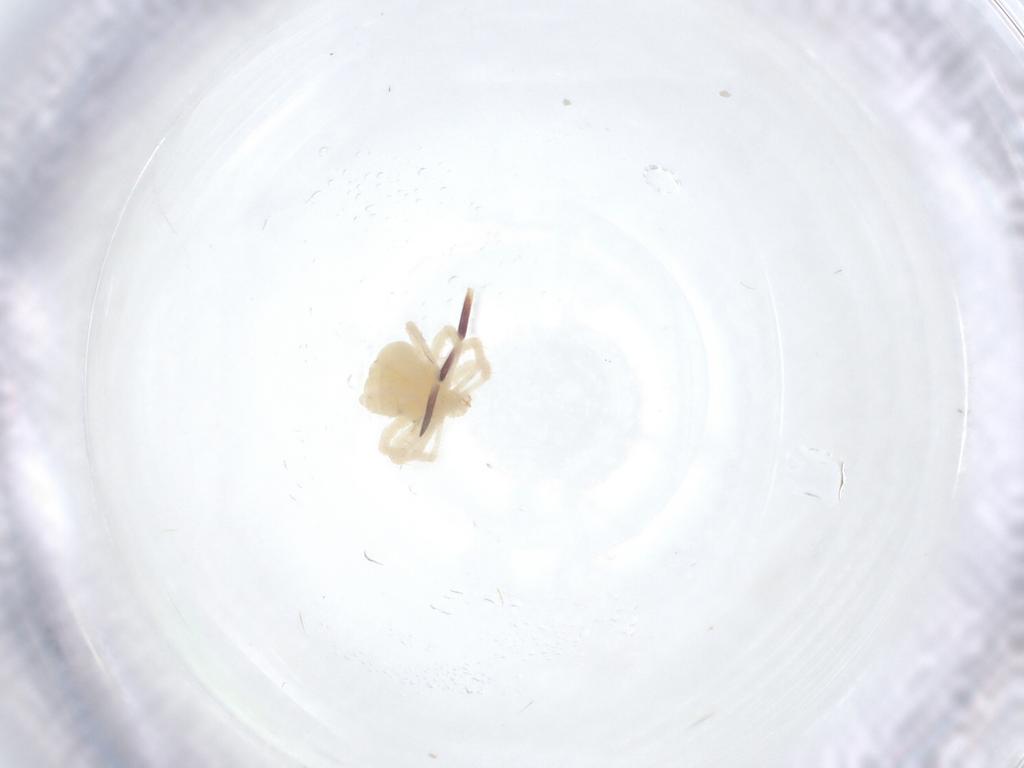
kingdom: Animalia
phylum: Arthropoda
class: Arachnida
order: Trombidiformes
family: Anystidae
